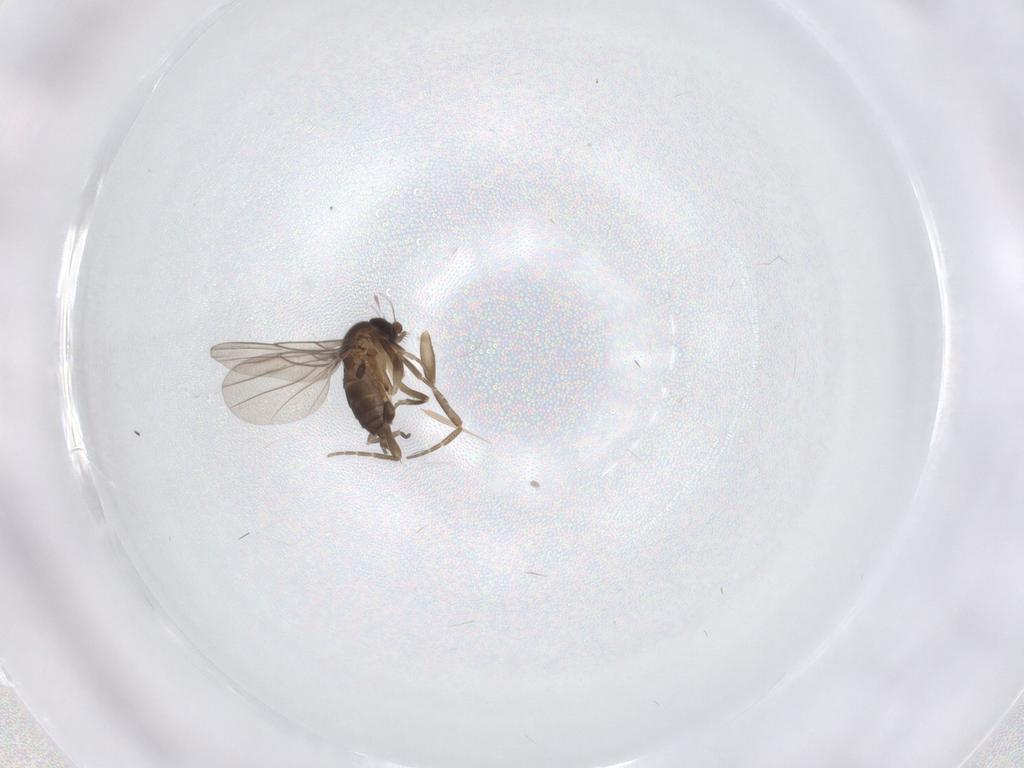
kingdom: Animalia
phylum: Arthropoda
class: Insecta
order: Diptera
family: Phoridae
